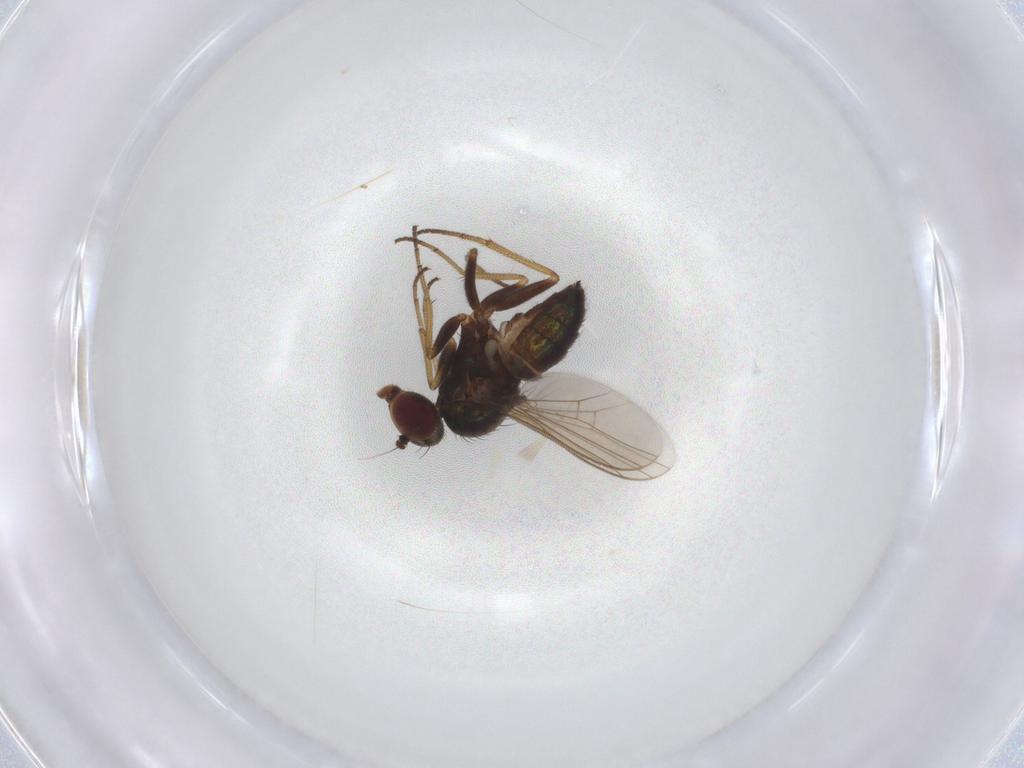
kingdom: Animalia
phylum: Arthropoda
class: Insecta
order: Diptera
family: Dolichopodidae
